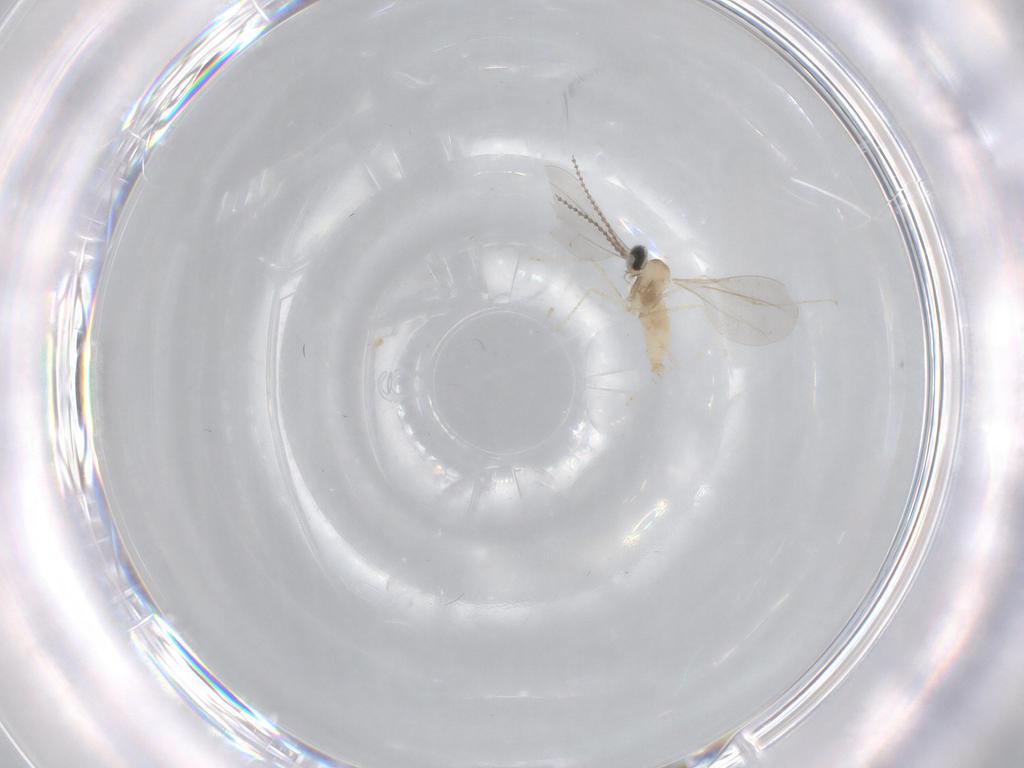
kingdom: Animalia
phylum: Arthropoda
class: Insecta
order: Diptera
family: Cecidomyiidae
